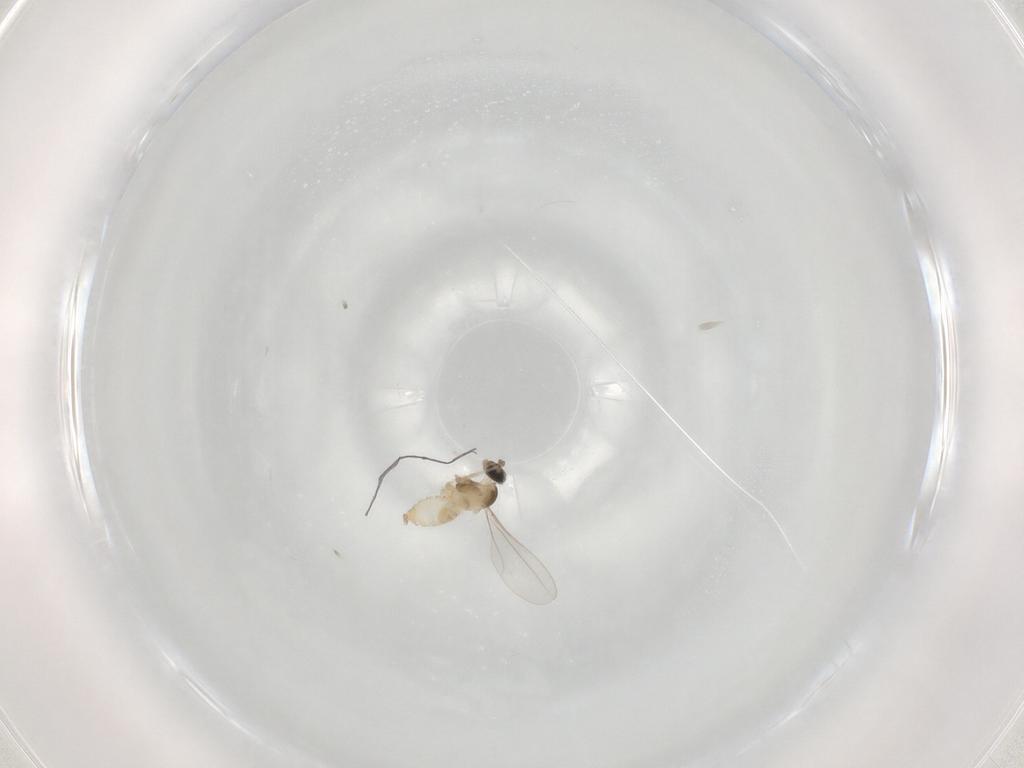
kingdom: Animalia
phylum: Arthropoda
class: Insecta
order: Diptera
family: Cecidomyiidae
